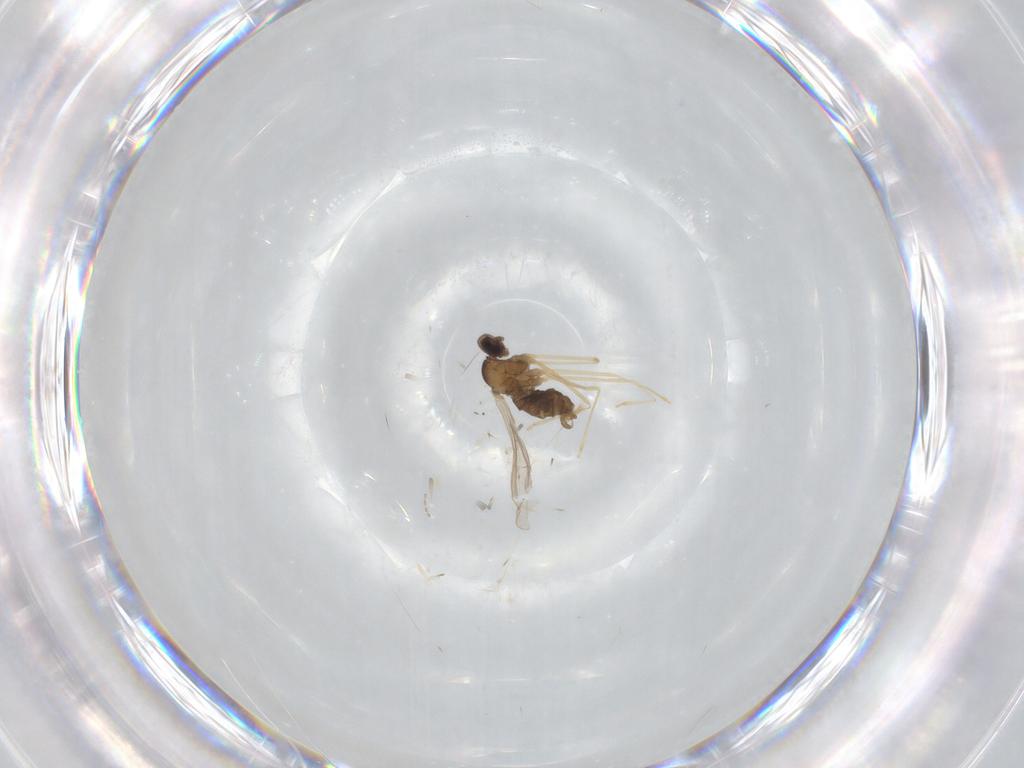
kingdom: Animalia
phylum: Arthropoda
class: Insecta
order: Diptera
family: Cecidomyiidae
